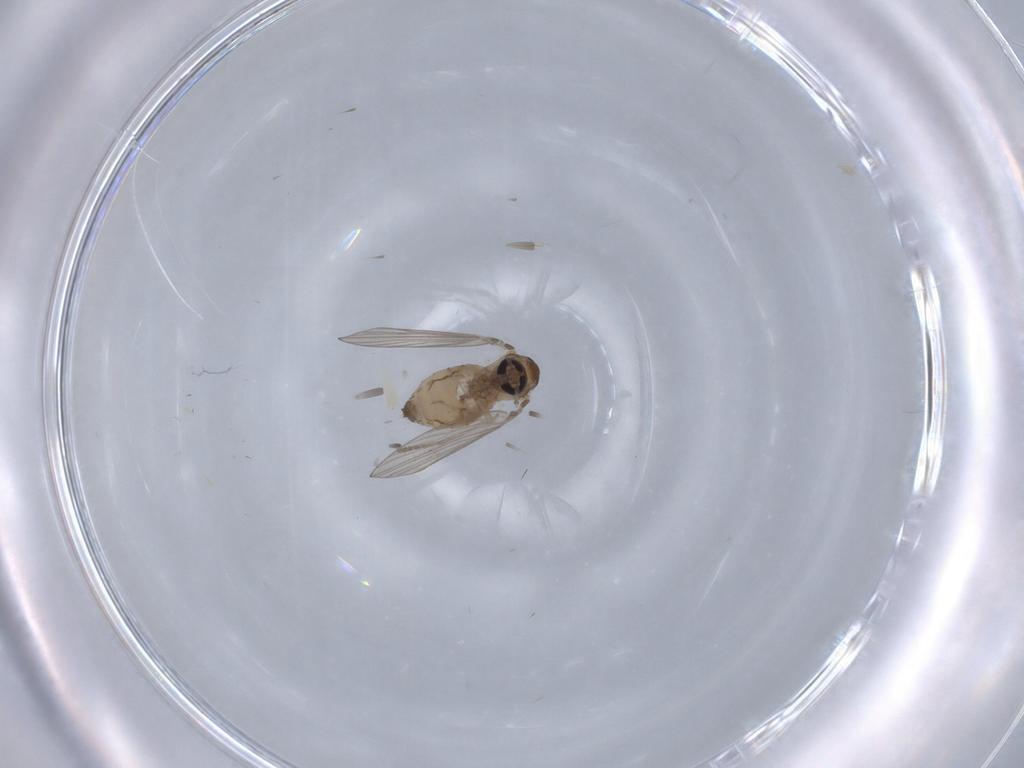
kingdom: Animalia
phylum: Arthropoda
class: Insecta
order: Diptera
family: Psychodidae
